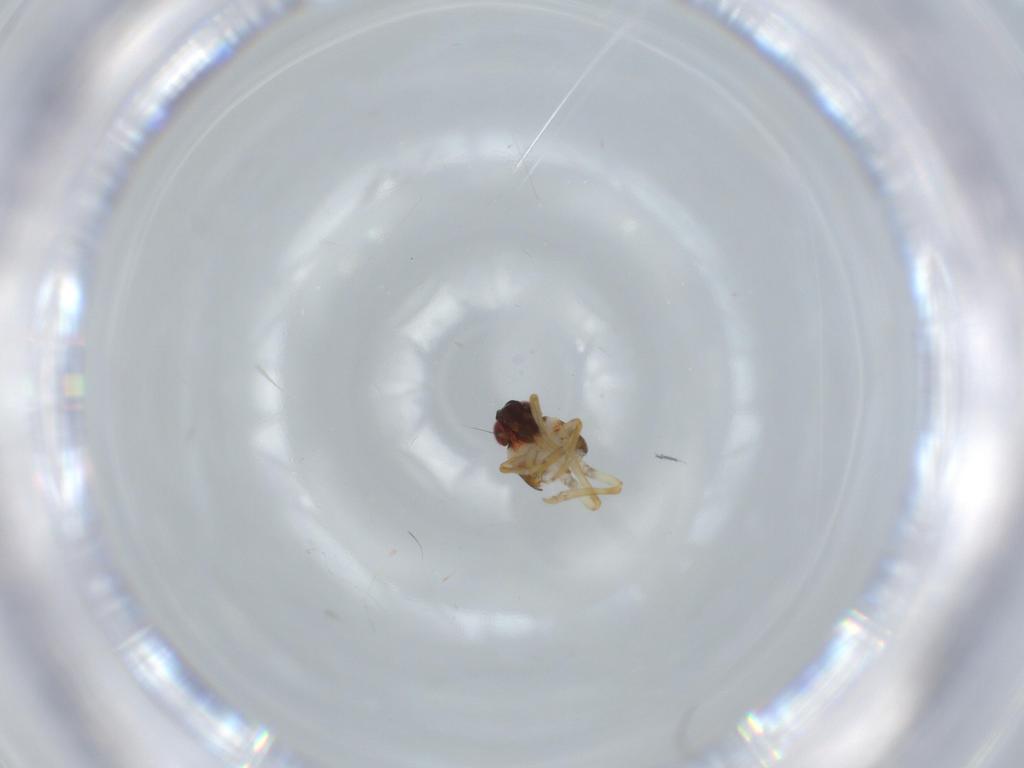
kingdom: Animalia
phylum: Arthropoda
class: Insecta
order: Hemiptera
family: Issidae
